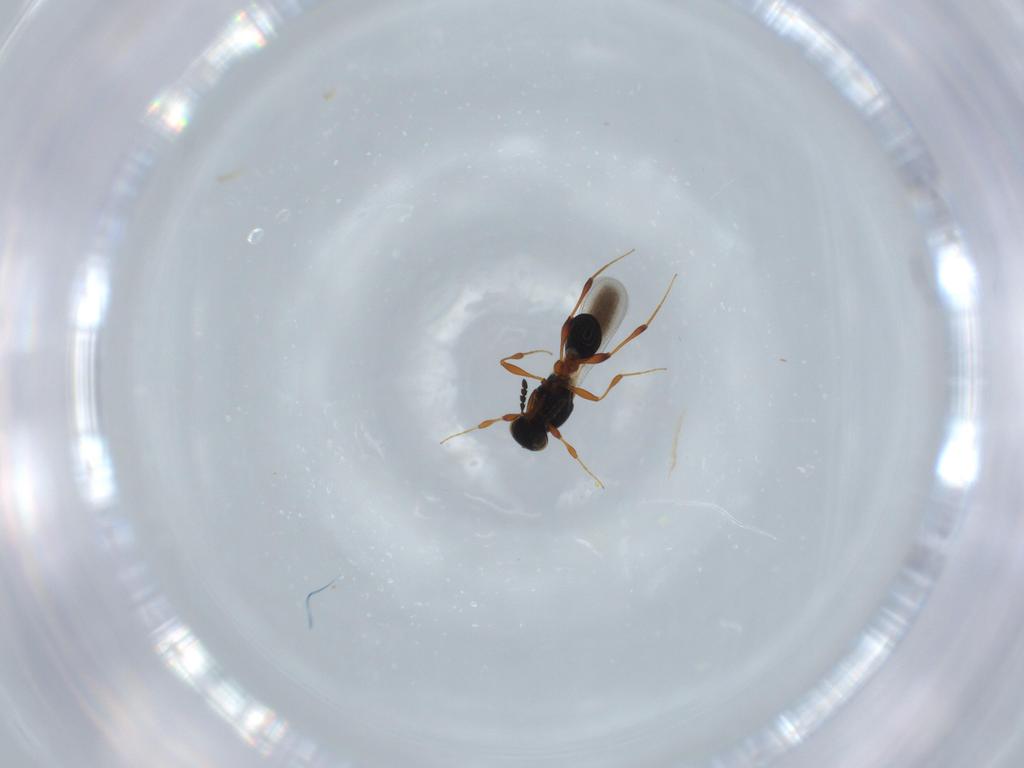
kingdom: Animalia
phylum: Arthropoda
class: Insecta
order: Hymenoptera
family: Platygastridae
